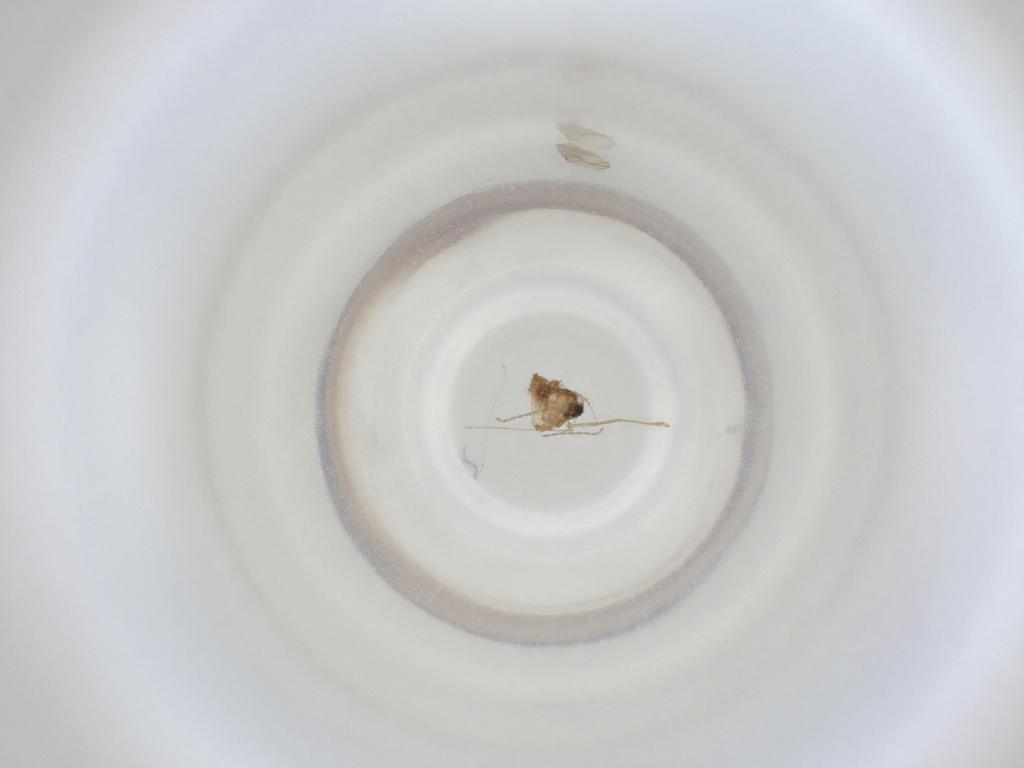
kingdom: Animalia
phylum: Arthropoda
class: Insecta
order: Diptera
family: Cecidomyiidae
